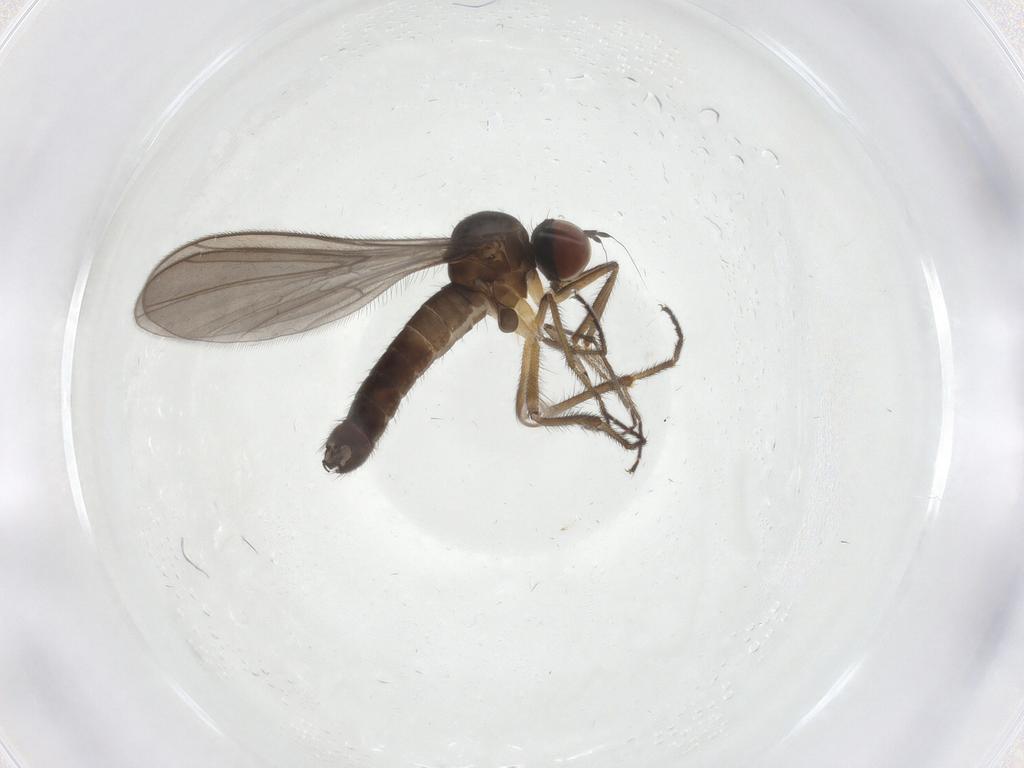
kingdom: Animalia
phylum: Arthropoda
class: Insecta
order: Diptera
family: Hybotidae
